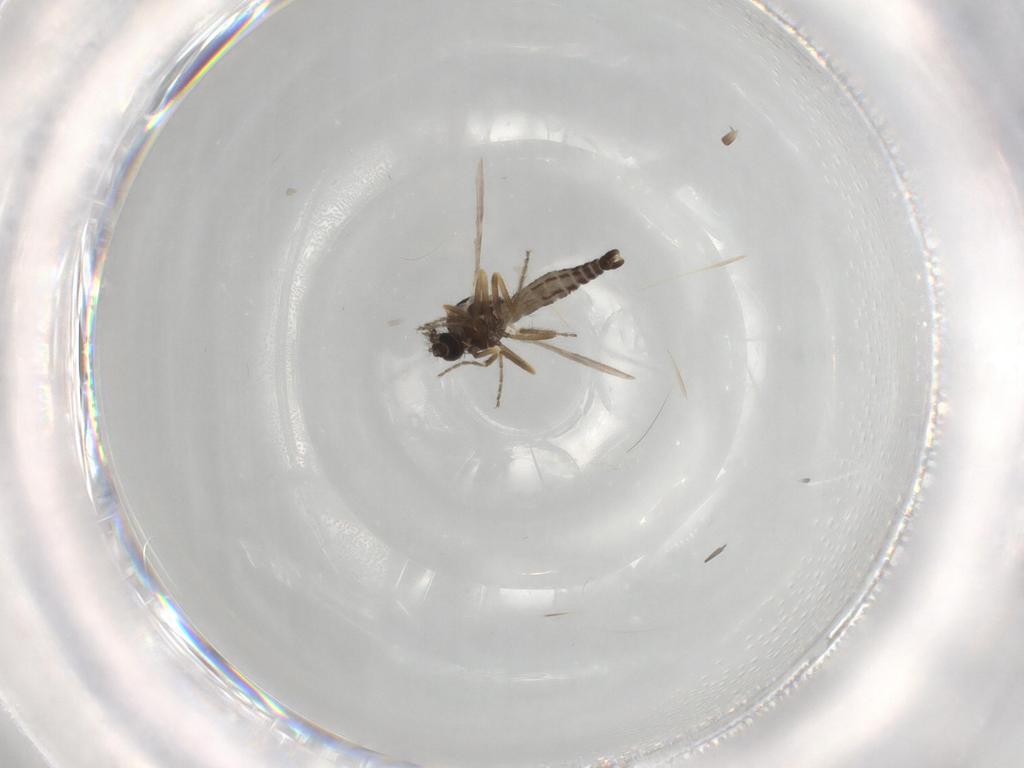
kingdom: Animalia
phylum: Arthropoda
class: Insecta
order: Diptera
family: Ceratopogonidae
